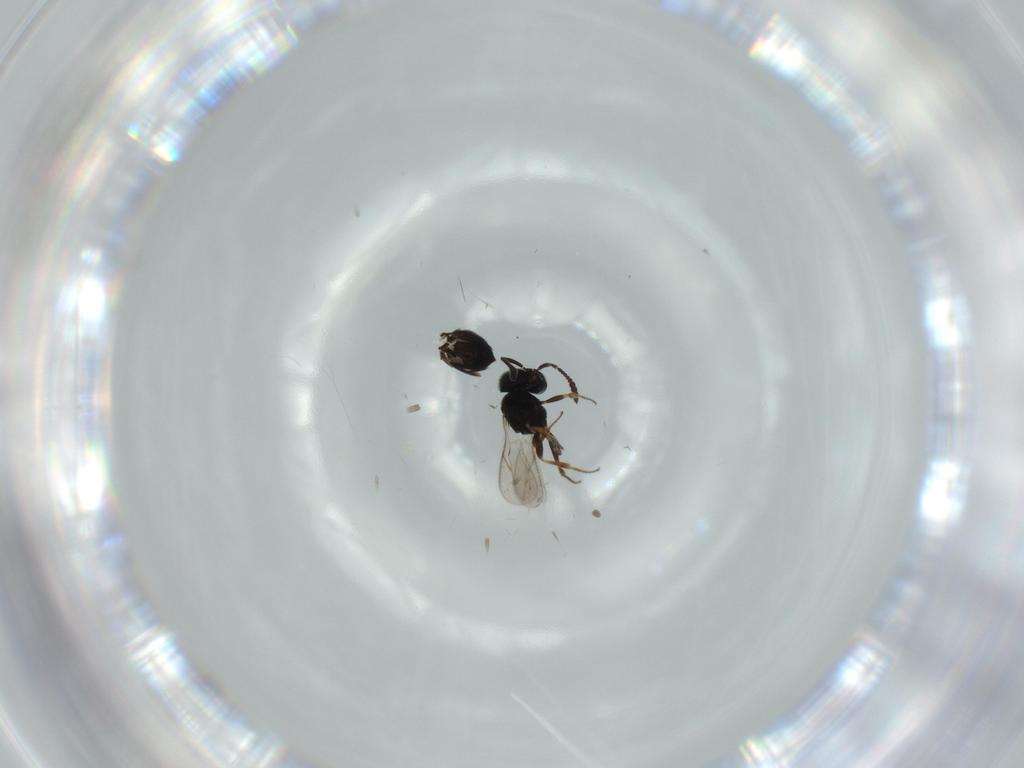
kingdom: Animalia
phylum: Arthropoda
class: Insecta
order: Hymenoptera
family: Scelionidae
